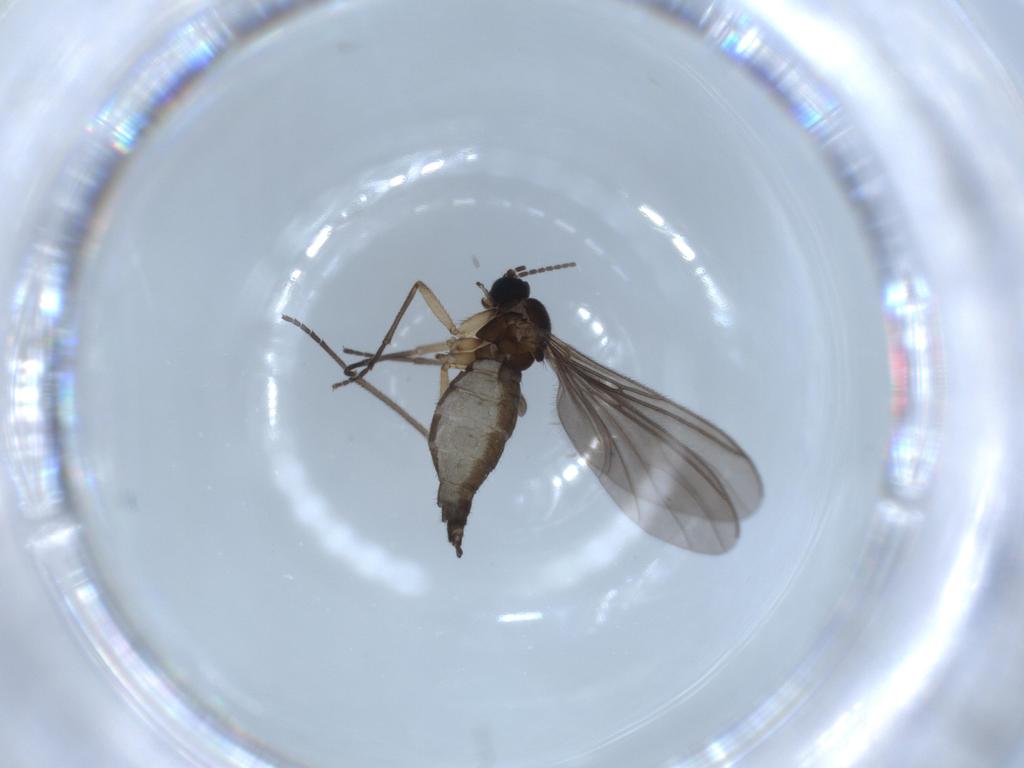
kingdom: Animalia
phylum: Arthropoda
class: Insecta
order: Diptera
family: Sciaridae
